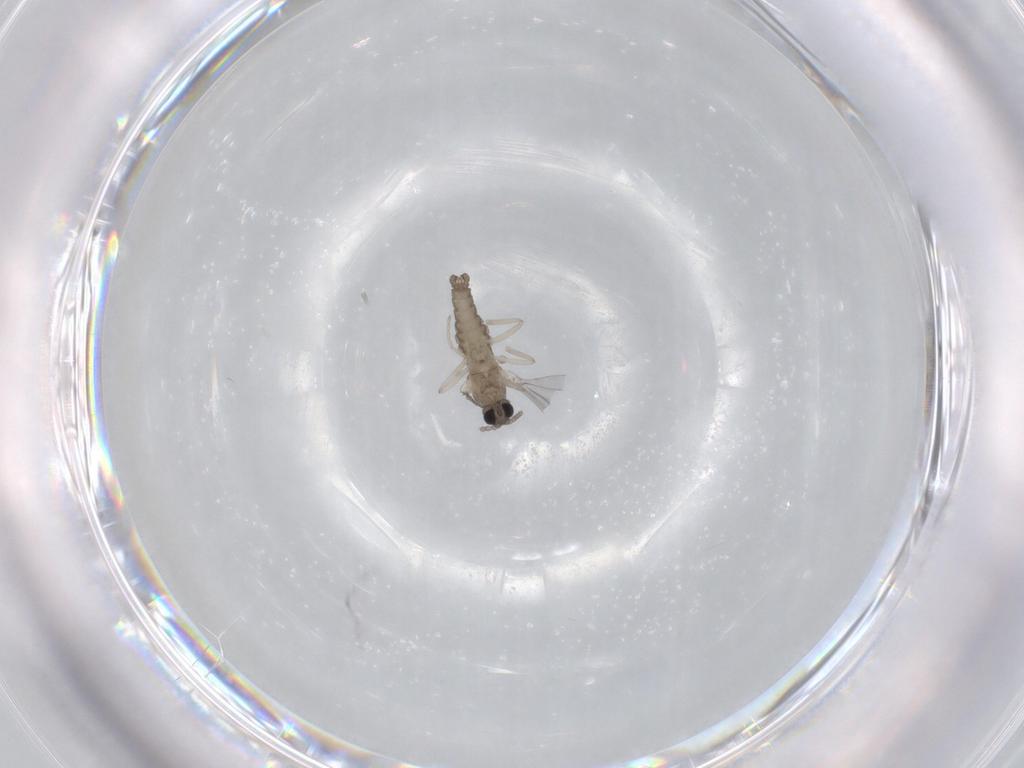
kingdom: Animalia
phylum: Arthropoda
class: Insecta
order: Diptera
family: Cecidomyiidae
